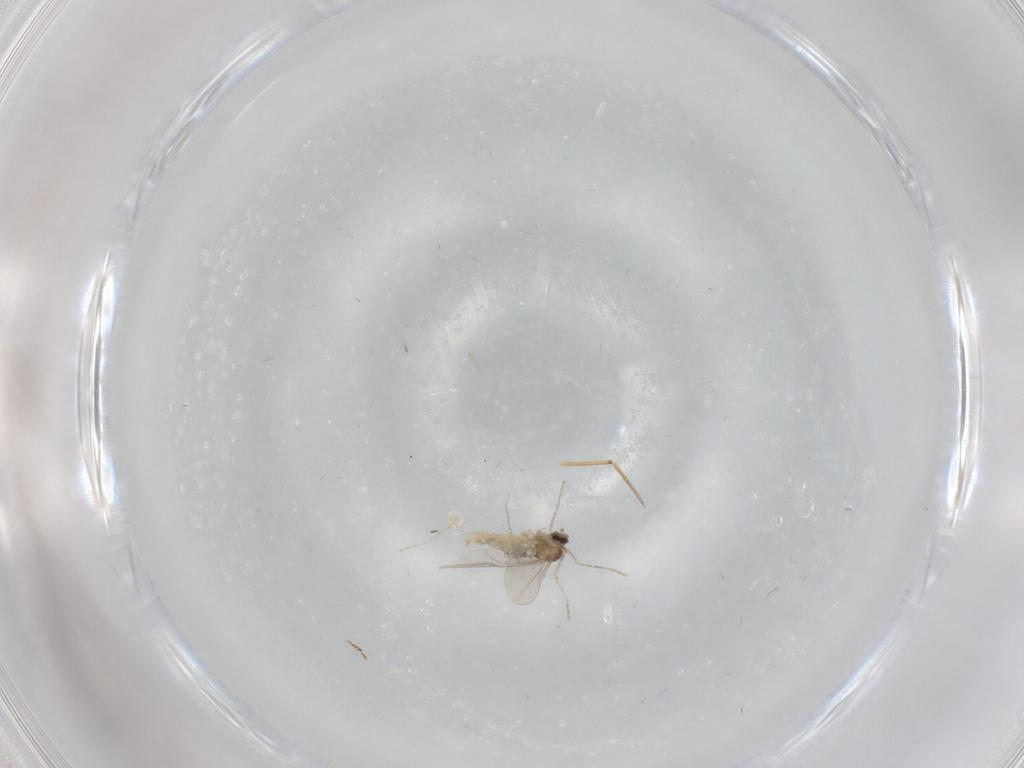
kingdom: Animalia
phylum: Arthropoda
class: Insecta
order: Diptera
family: Cecidomyiidae
